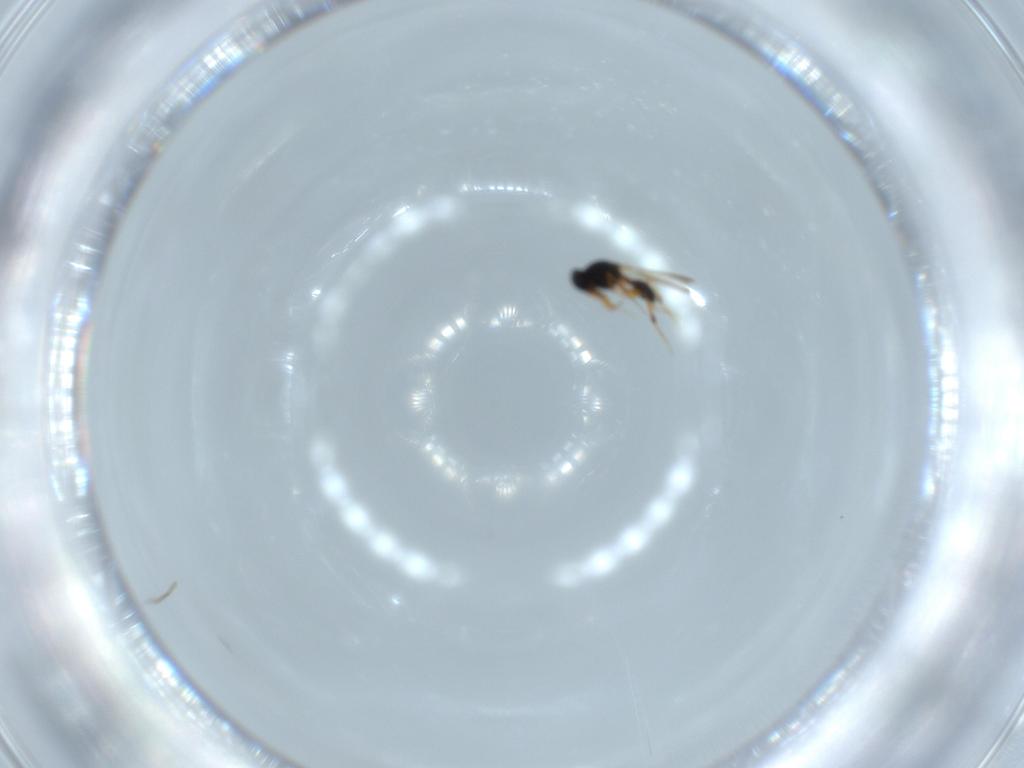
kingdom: Animalia
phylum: Arthropoda
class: Insecta
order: Hymenoptera
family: Platygastridae
